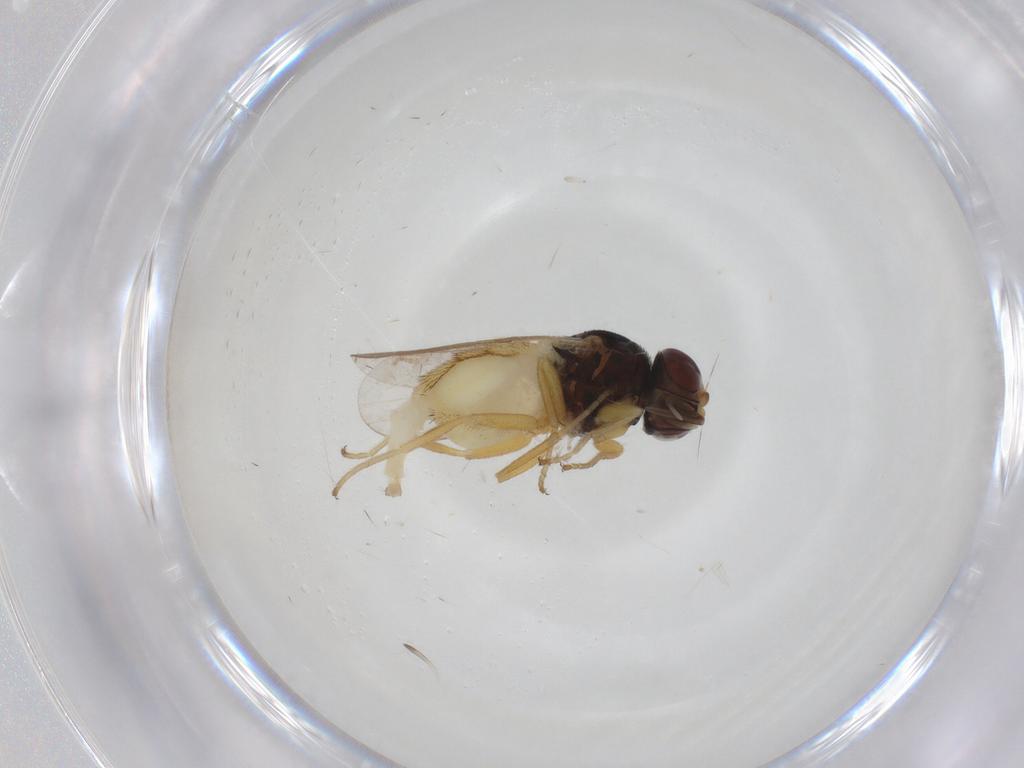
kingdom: Animalia
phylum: Arthropoda
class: Insecta
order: Diptera
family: Chloropidae
